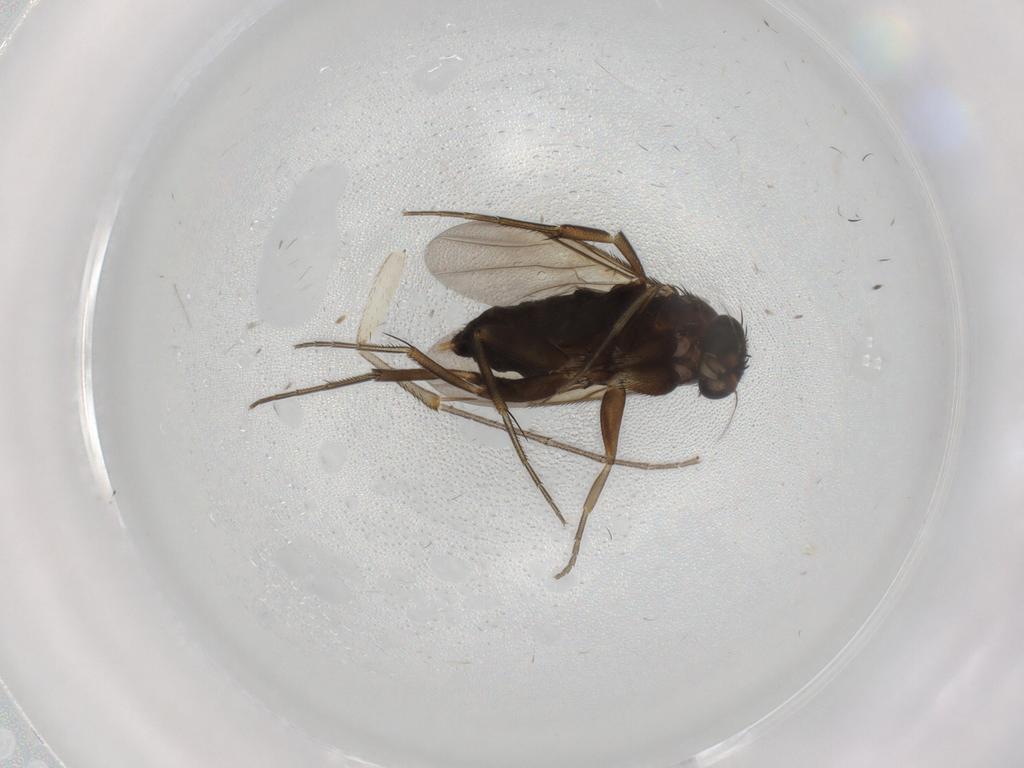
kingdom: Animalia
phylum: Arthropoda
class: Insecta
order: Diptera
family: Phoridae
